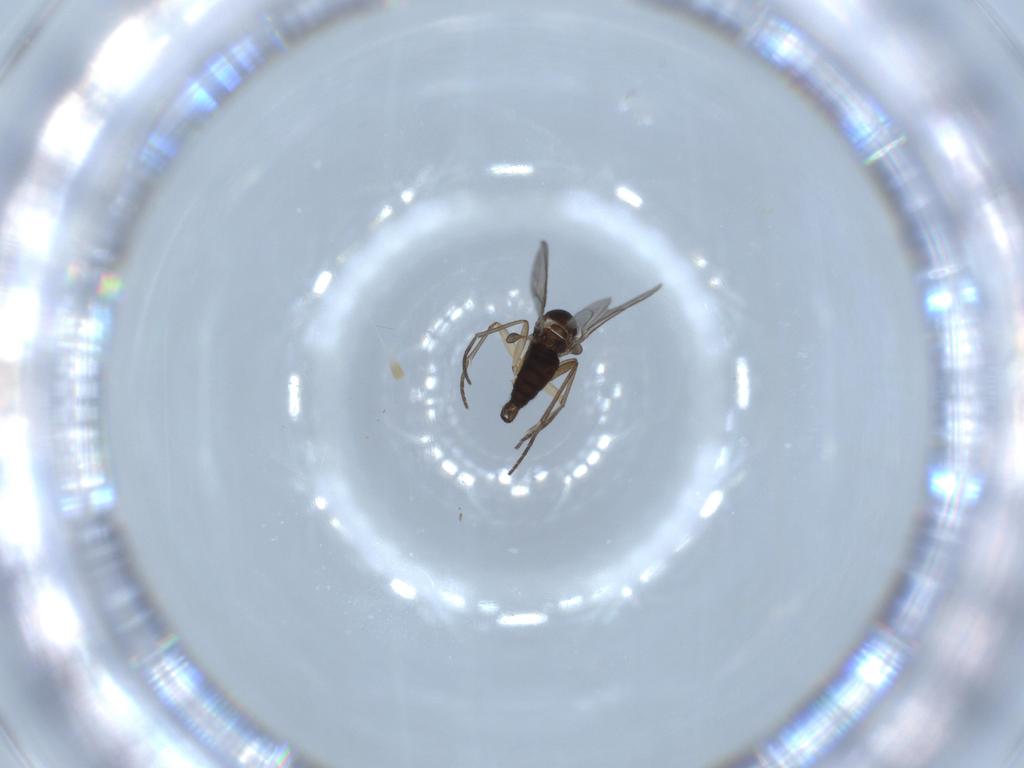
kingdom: Animalia
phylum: Arthropoda
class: Insecta
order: Diptera
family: Sciaridae
